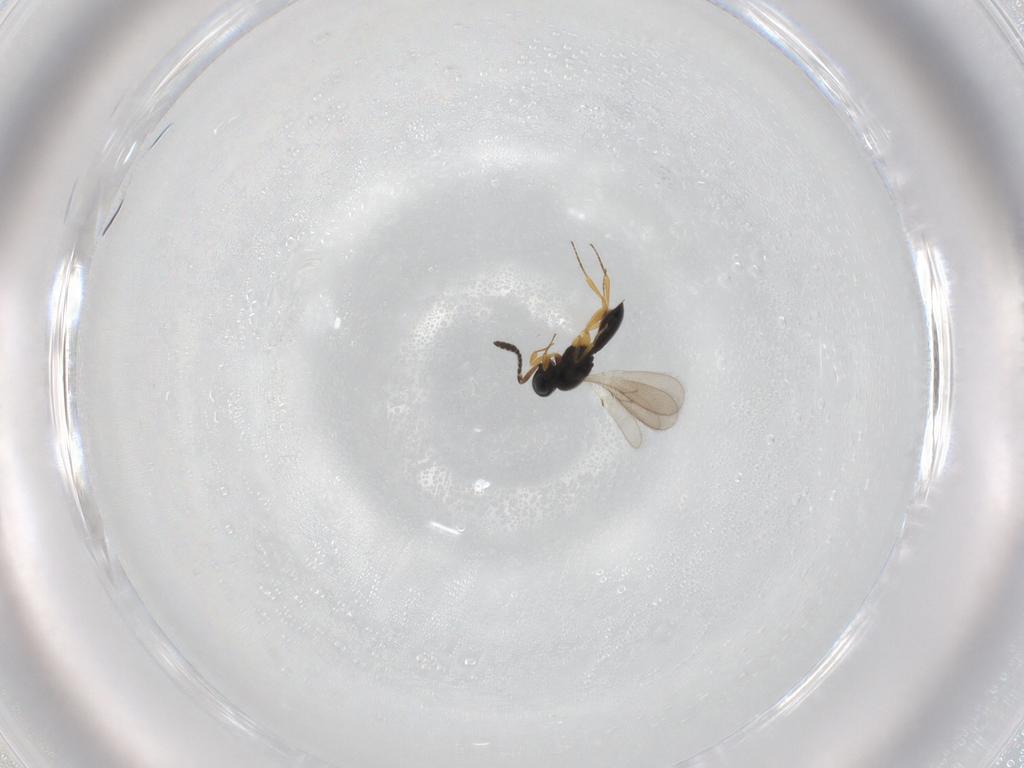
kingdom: Animalia
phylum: Arthropoda
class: Insecta
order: Hymenoptera
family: Scelionidae
